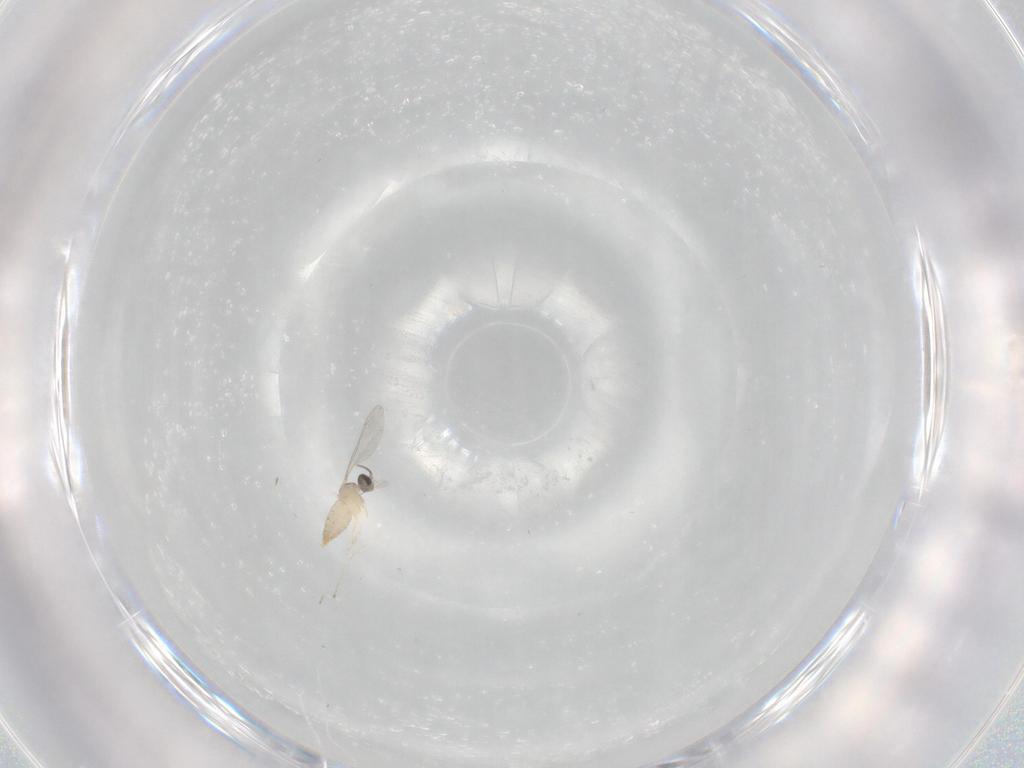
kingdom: Animalia
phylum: Arthropoda
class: Insecta
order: Diptera
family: Cecidomyiidae
